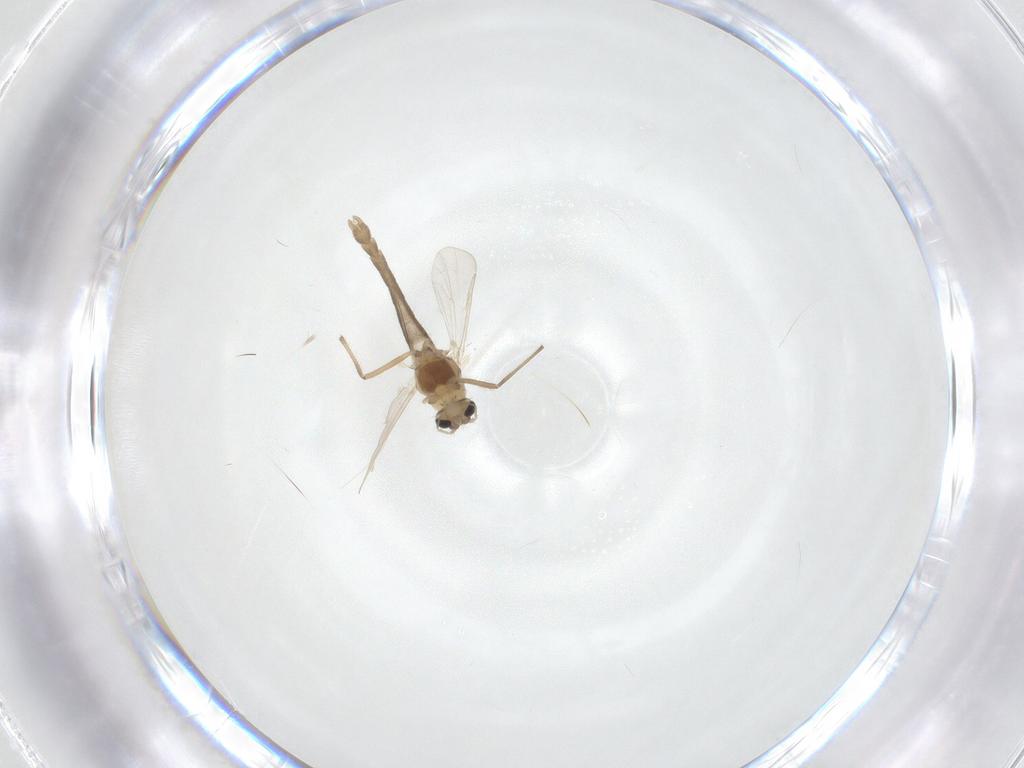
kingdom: Animalia
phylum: Arthropoda
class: Insecta
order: Diptera
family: Chironomidae
